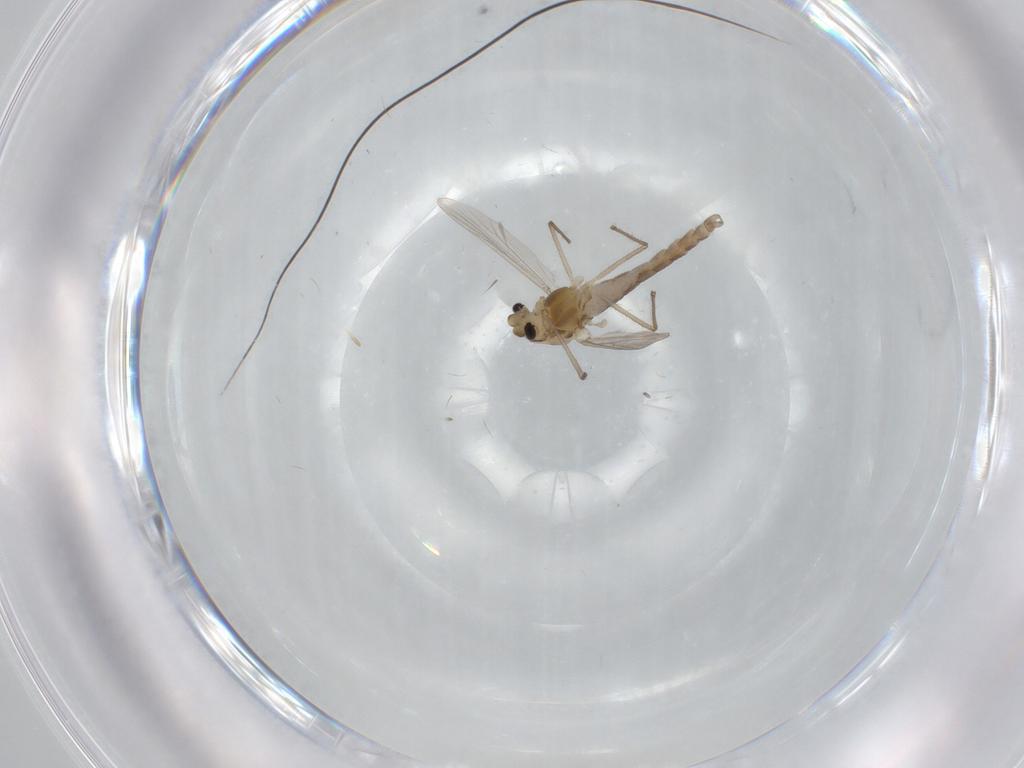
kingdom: Animalia
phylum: Arthropoda
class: Insecta
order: Diptera
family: Chironomidae
